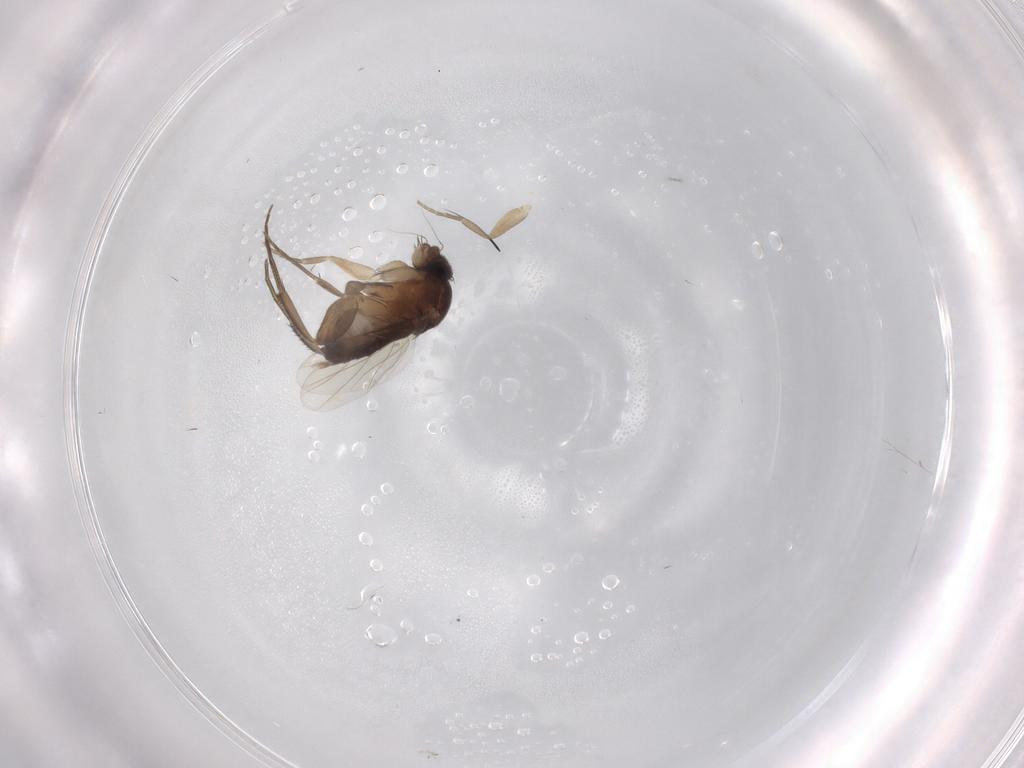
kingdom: Animalia
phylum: Arthropoda
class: Insecta
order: Diptera
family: Phoridae
